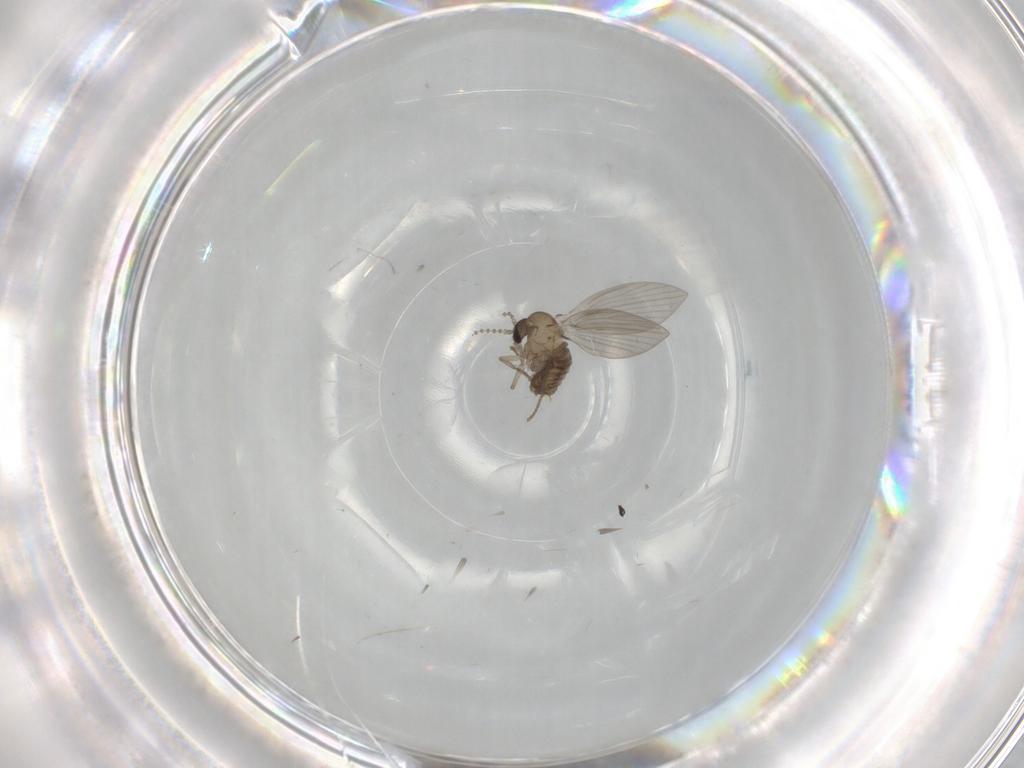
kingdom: Animalia
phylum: Arthropoda
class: Insecta
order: Diptera
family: Psychodidae
